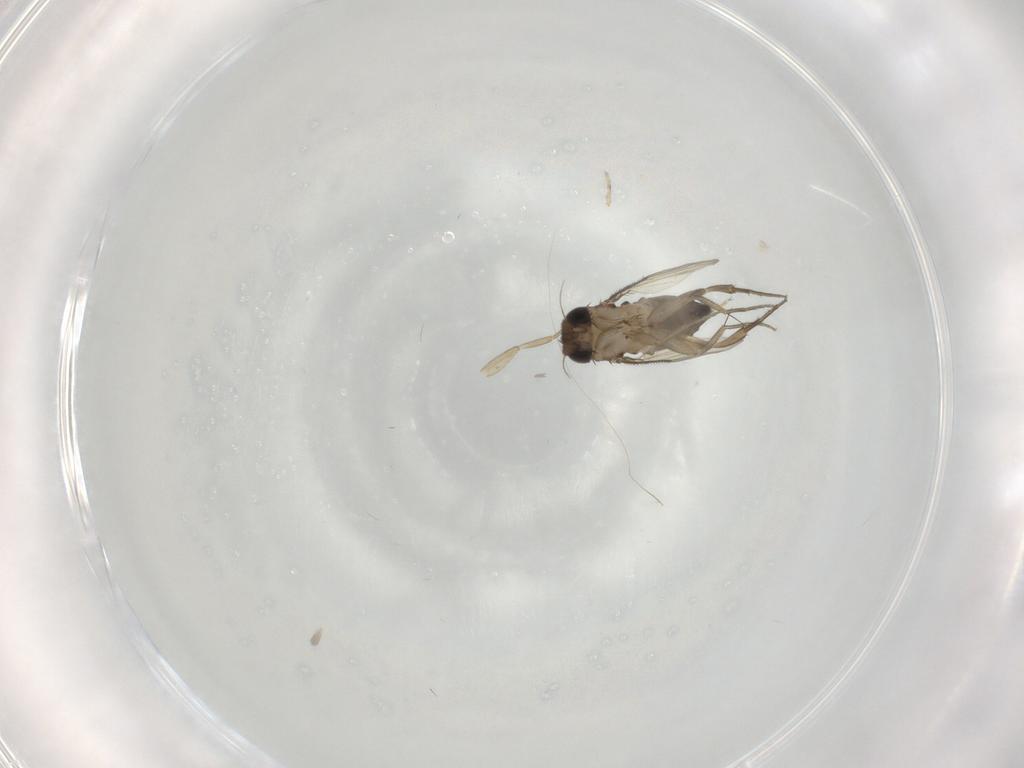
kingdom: Animalia
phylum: Arthropoda
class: Insecta
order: Diptera
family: Phoridae
